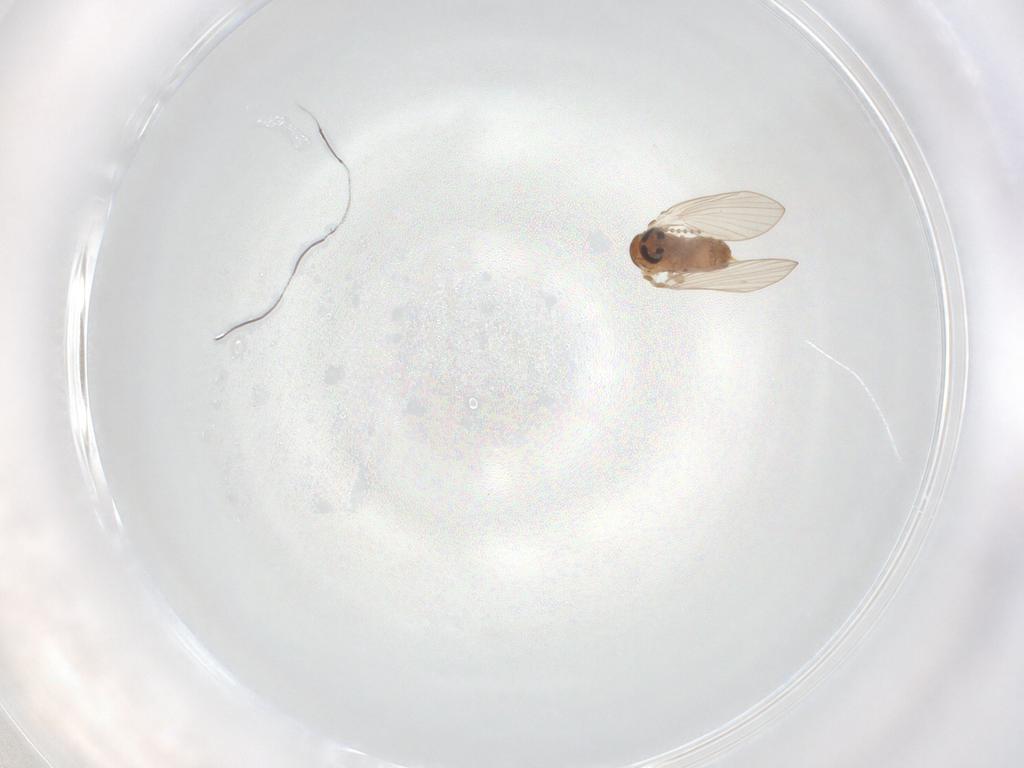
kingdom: Animalia
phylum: Arthropoda
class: Insecta
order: Diptera
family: Psychodidae
